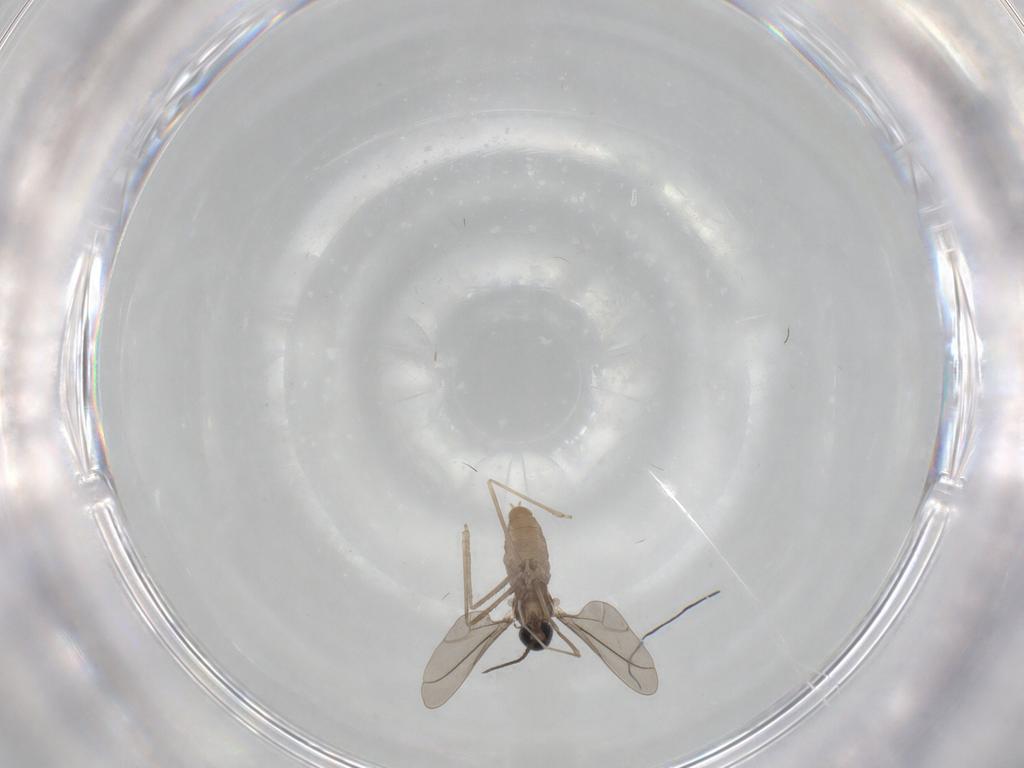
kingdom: Animalia
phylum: Arthropoda
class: Insecta
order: Diptera
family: Cecidomyiidae
